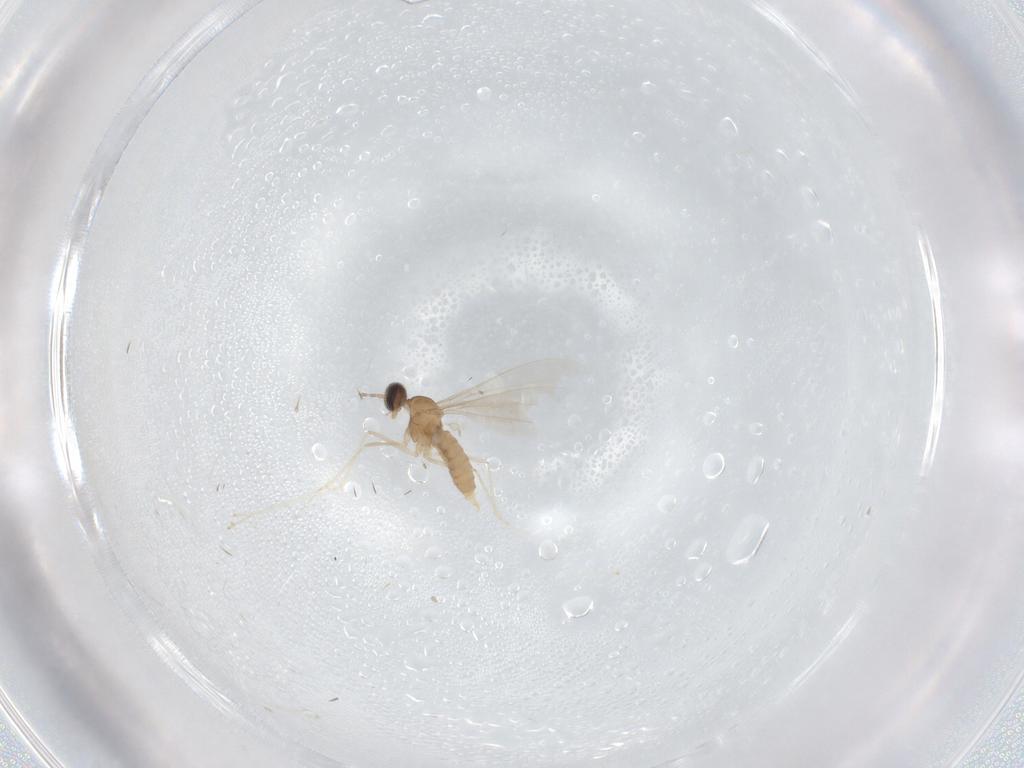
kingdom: Animalia
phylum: Arthropoda
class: Insecta
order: Diptera
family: Cecidomyiidae
